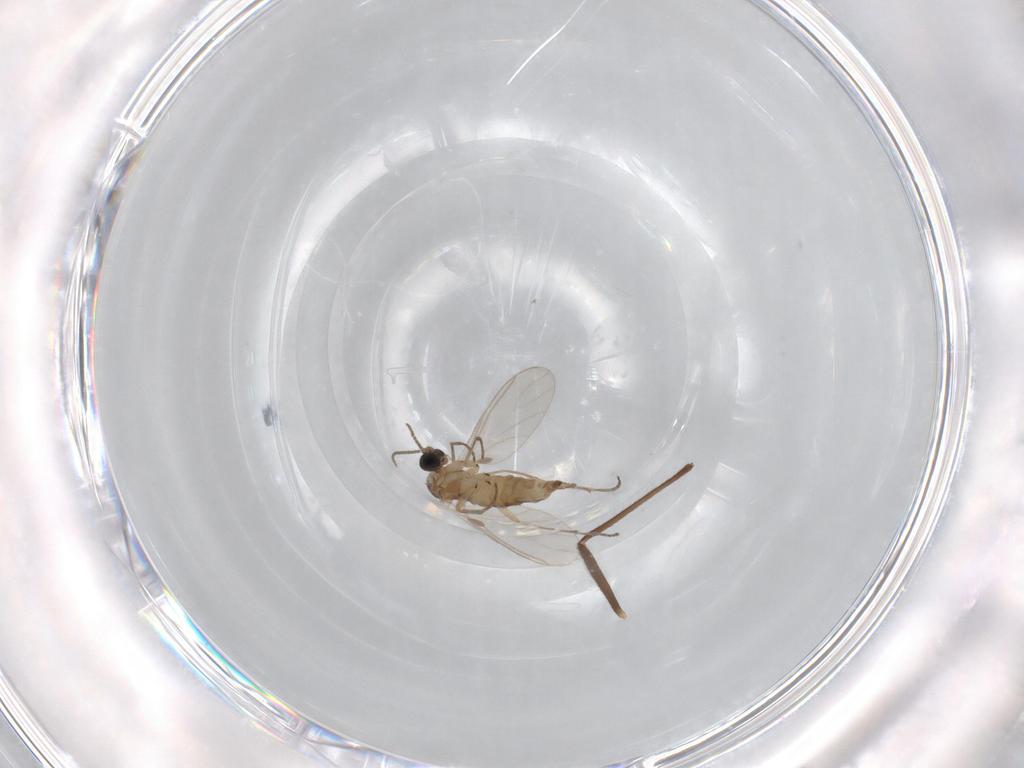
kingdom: Animalia
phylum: Arthropoda
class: Insecta
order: Diptera
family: Sciaridae
